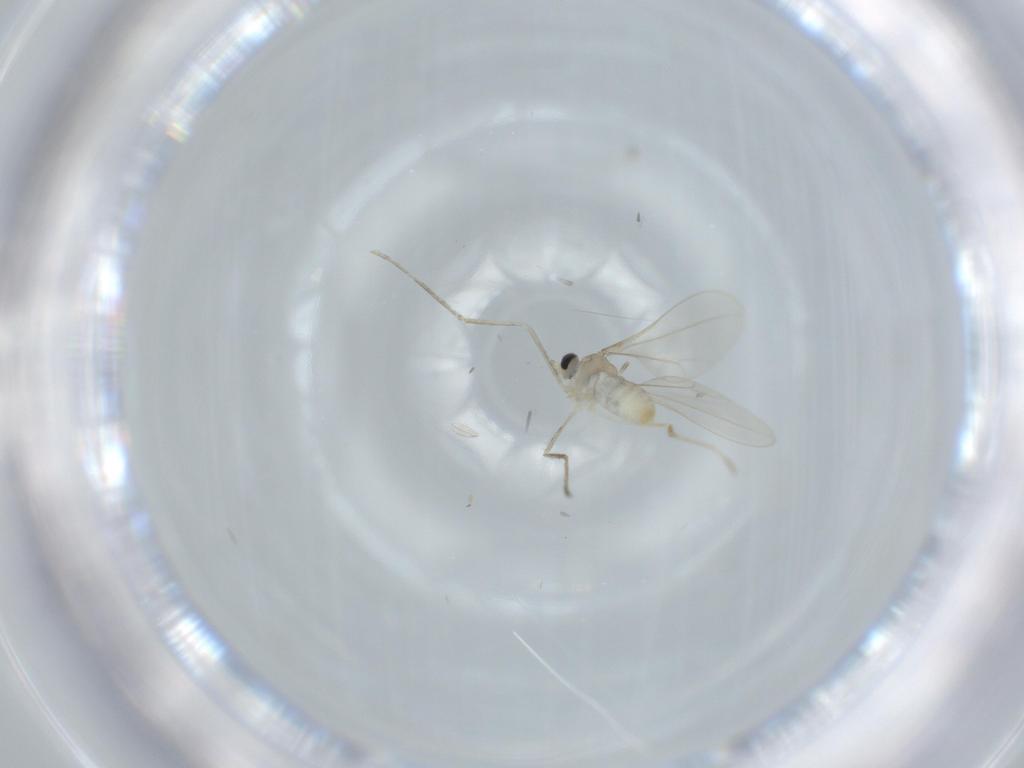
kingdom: Animalia
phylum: Arthropoda
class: Insecta
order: Diptera
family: Cecidomyiidae
